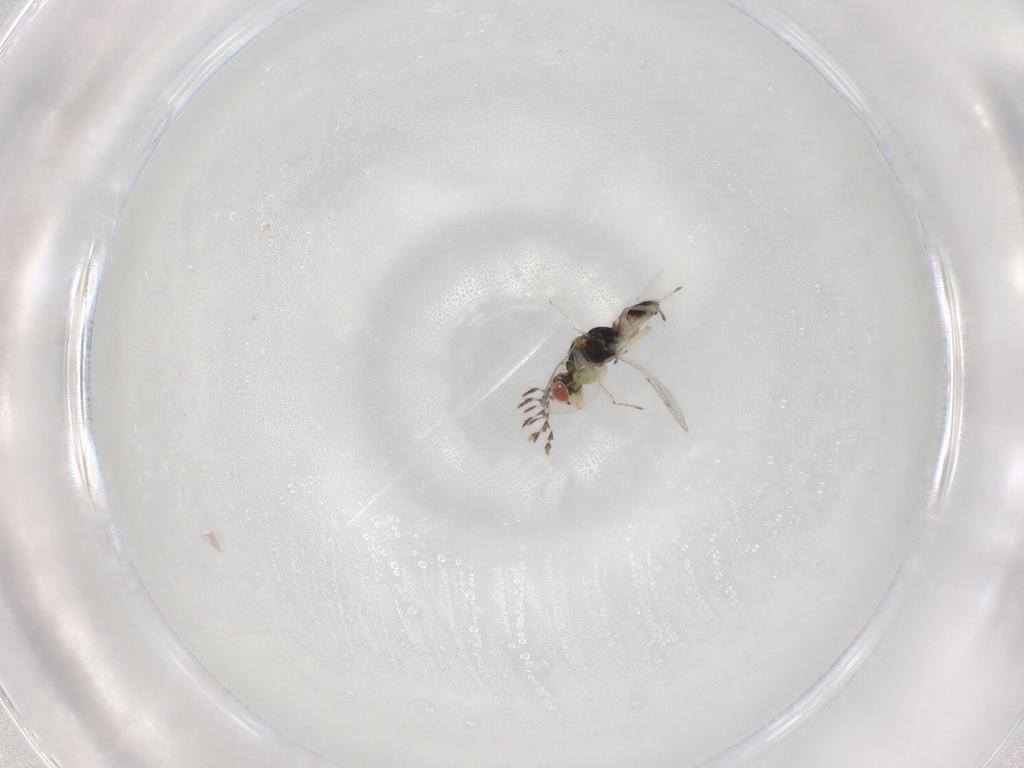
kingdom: Animalia
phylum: Arthropoda
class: Insecta
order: Hymenoptera
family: Eulophidae
